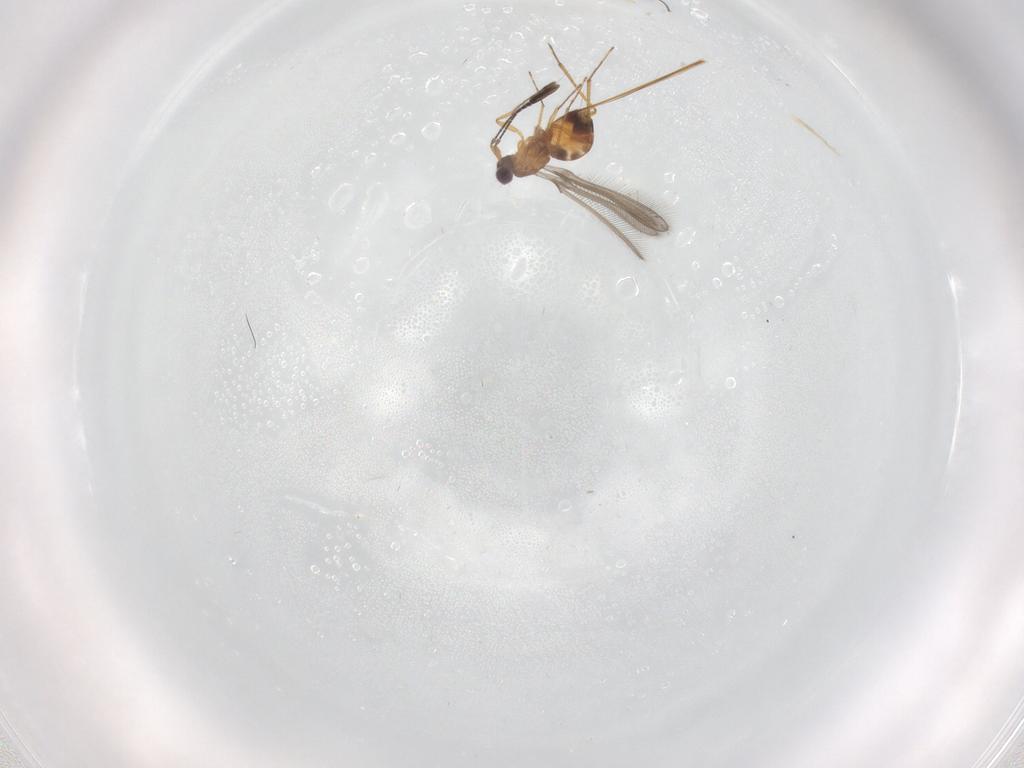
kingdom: Animalia
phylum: Arthropoda
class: Insecta
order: Hymenoptera
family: Mymaridae
